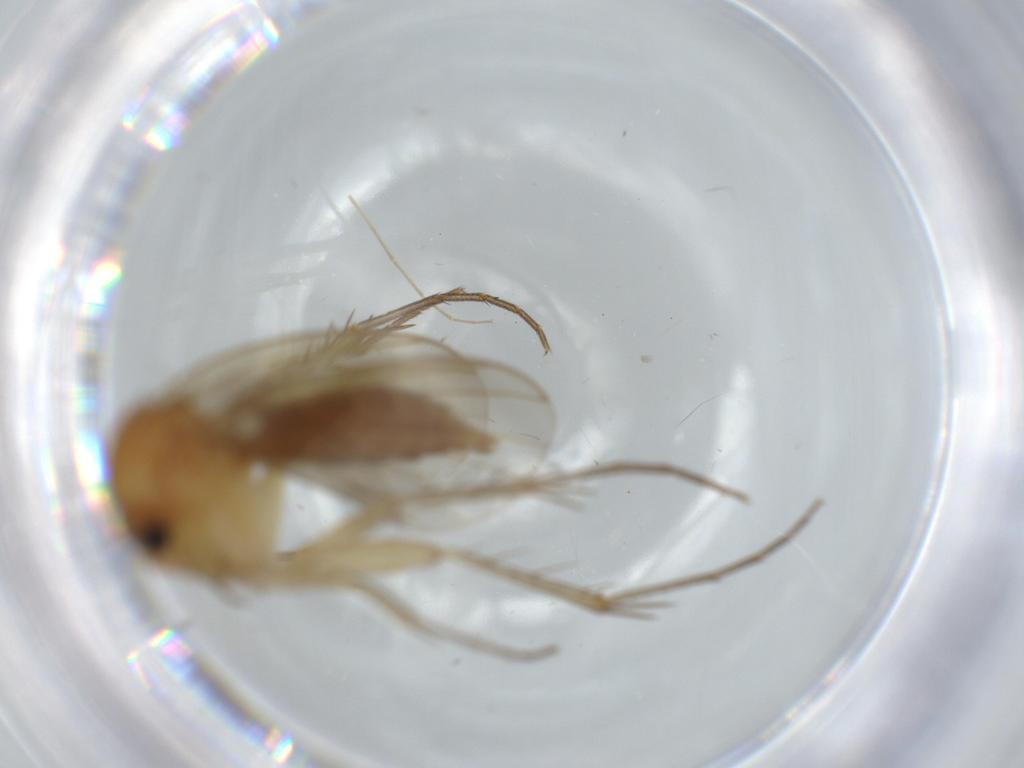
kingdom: Animalia
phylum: Arthropoda
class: Insecta
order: Diptera
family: Mycetophilidae
